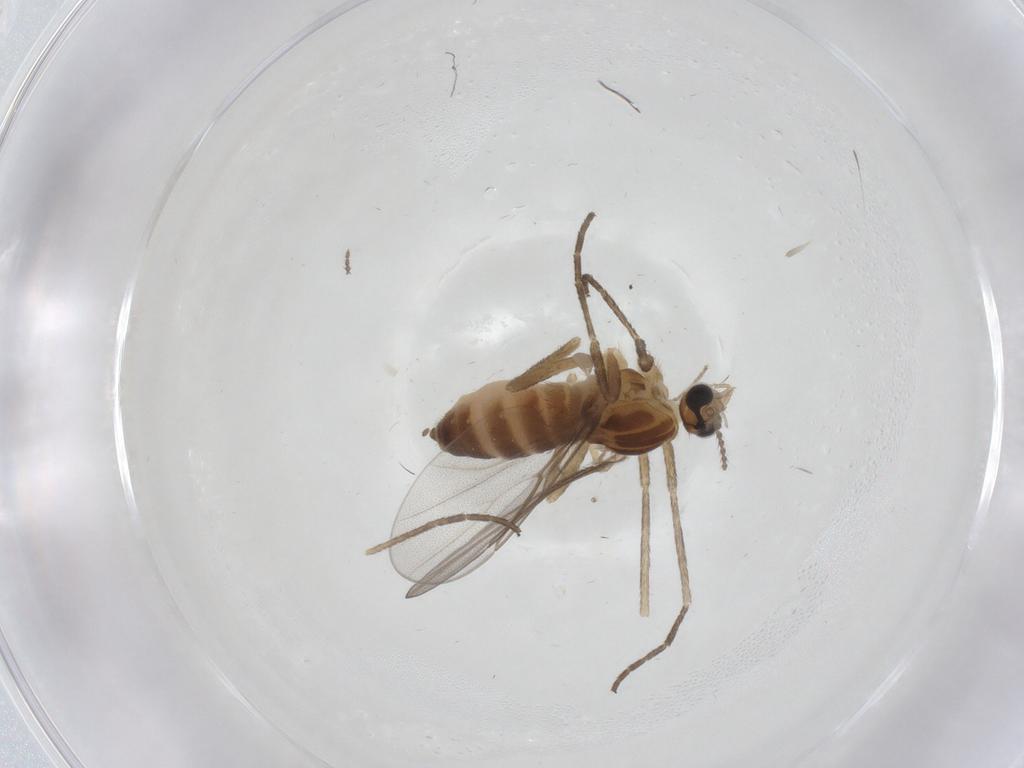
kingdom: Animalia
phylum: Arthropoda
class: Insecta
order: Diptera
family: Cecidomyiidae
